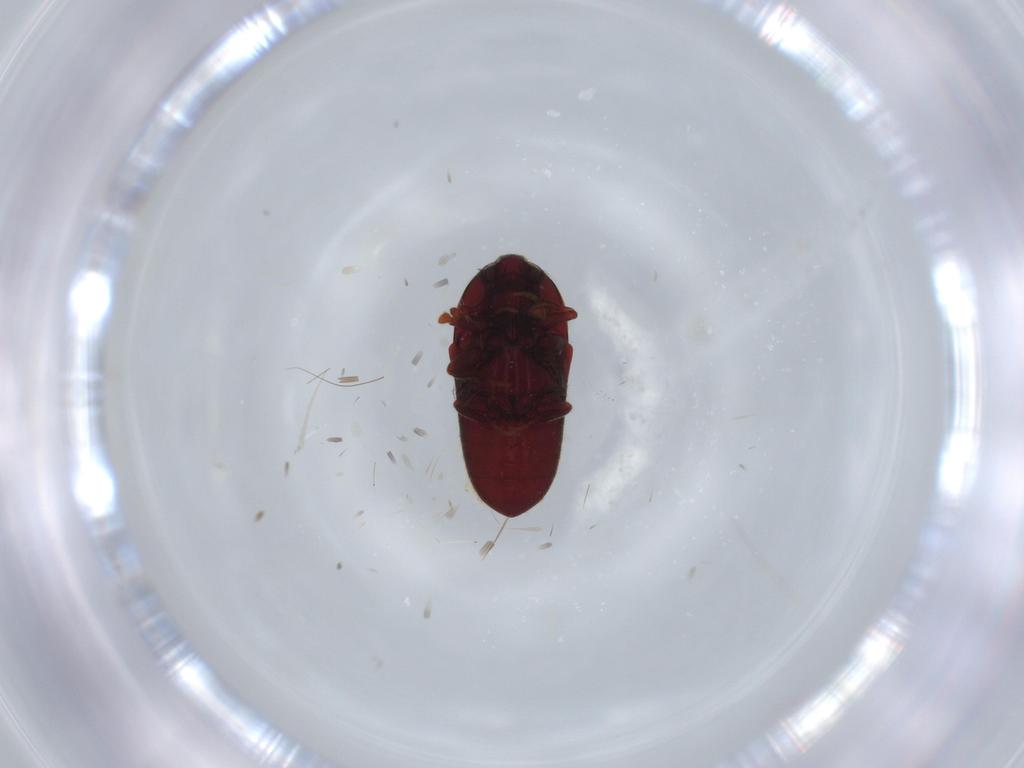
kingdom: Animalia
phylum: Arthropoda
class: Insecta
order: Coleoptera
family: Throscidae
